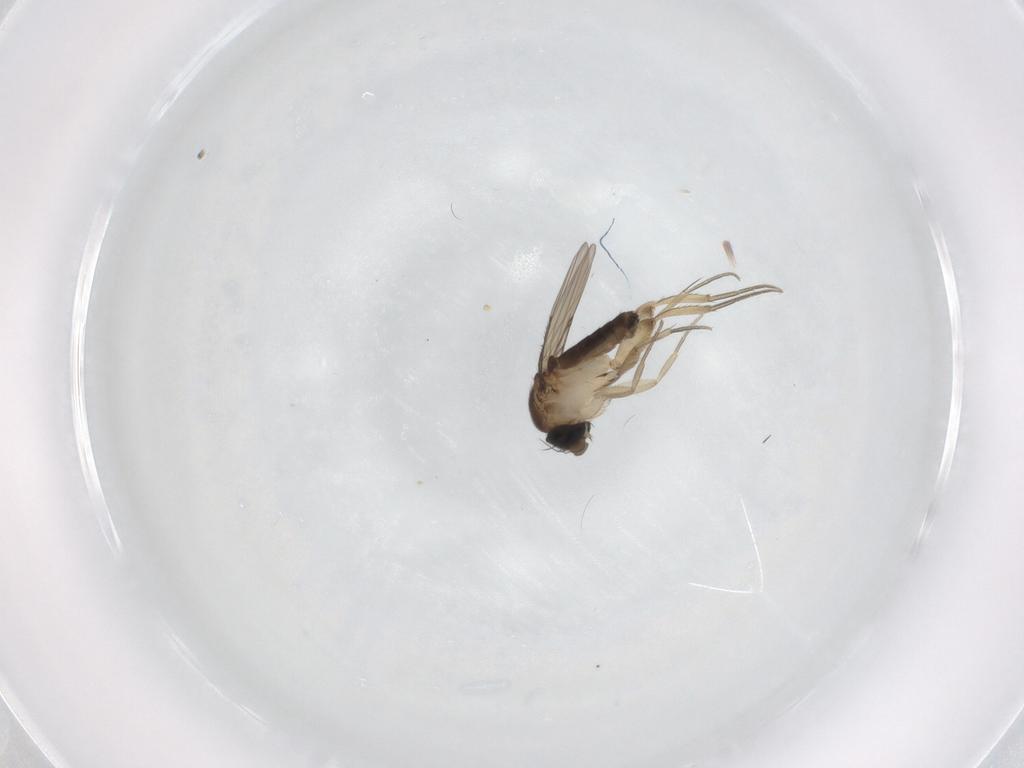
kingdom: Animalia
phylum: Arthropoda
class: Insecta
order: Diptera
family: Phoridae
